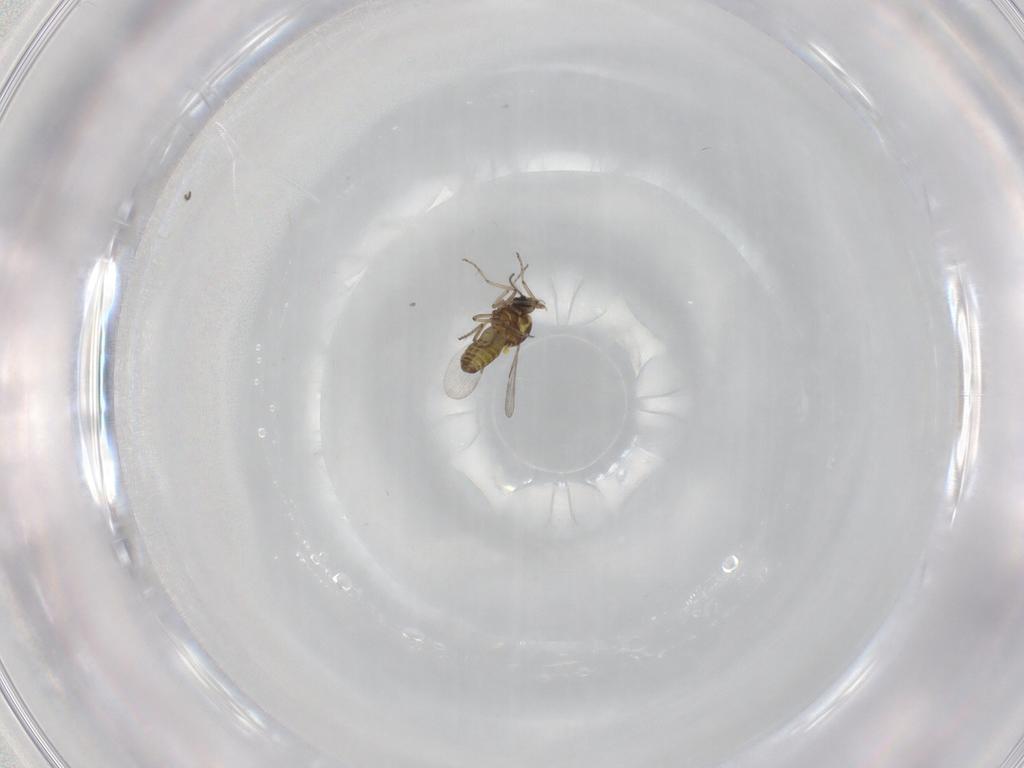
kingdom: Animalia
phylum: Arthropoda
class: Insecta
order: Diptera
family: Ceratopogonidae
